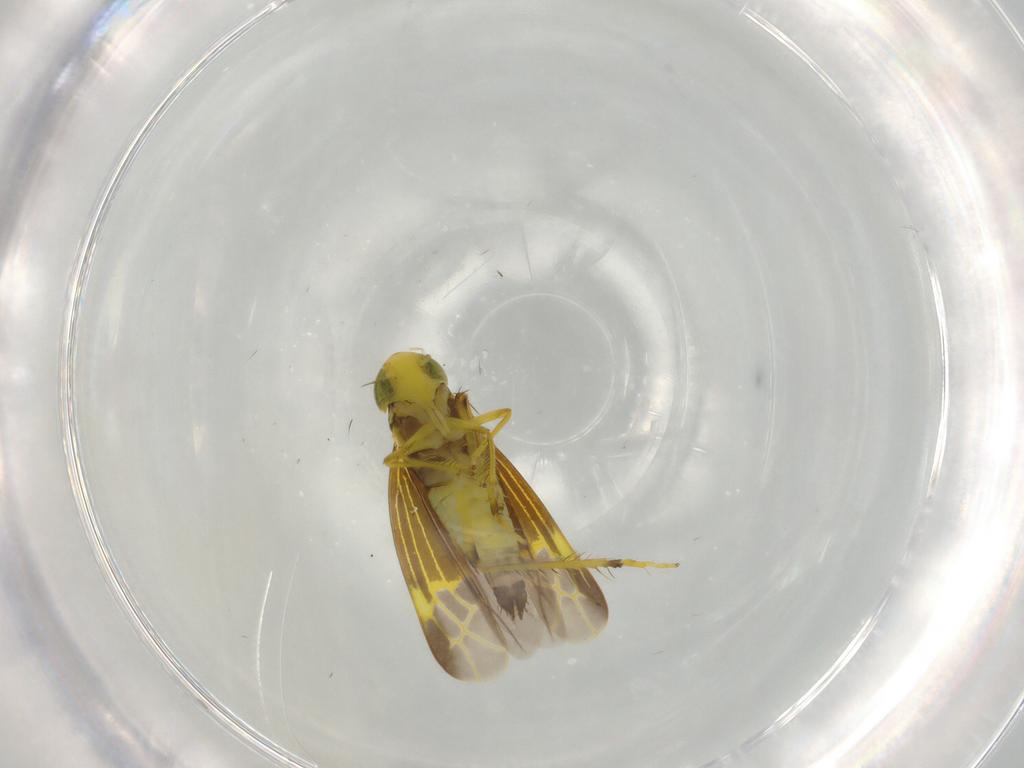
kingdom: Animalia
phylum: Arthropoda
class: Insecta
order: Hemiptera
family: Cicadellidae
